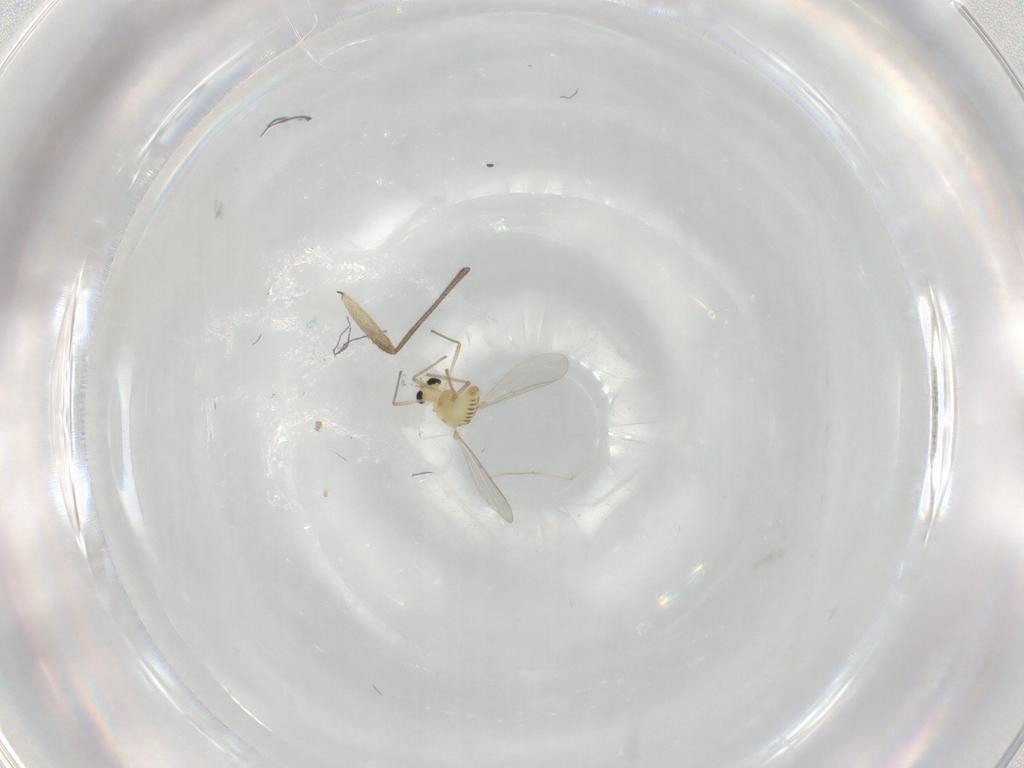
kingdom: Animalia
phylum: Arthropoda
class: Insecta
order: Diptera
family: Sciaridae
